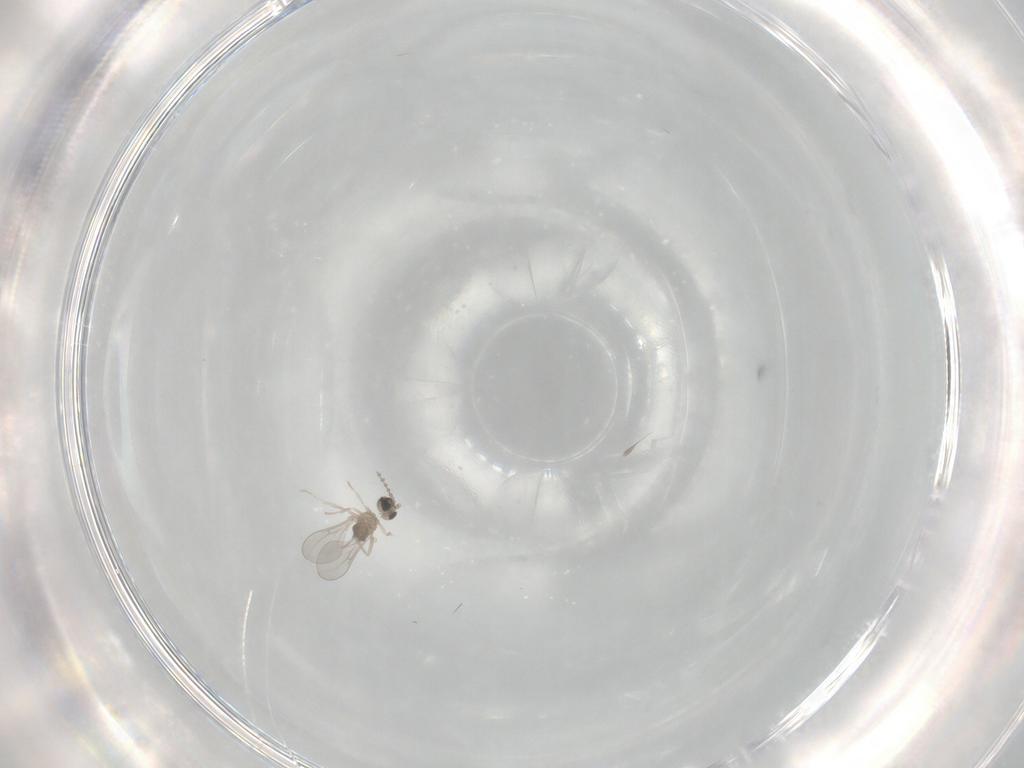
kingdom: Animalia
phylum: Arthropoda
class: Insecta
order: Diptera
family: Cecidomyiidae
